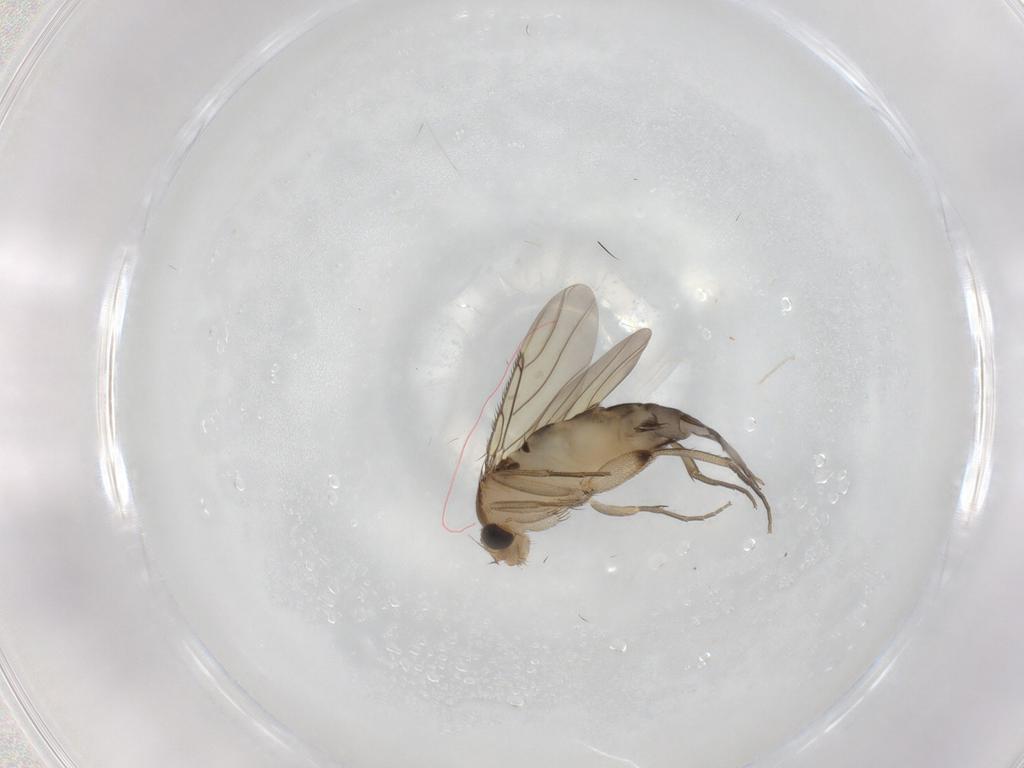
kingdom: Animalia
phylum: Arthropoda
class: Insecta
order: Diptera
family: Phoridae
